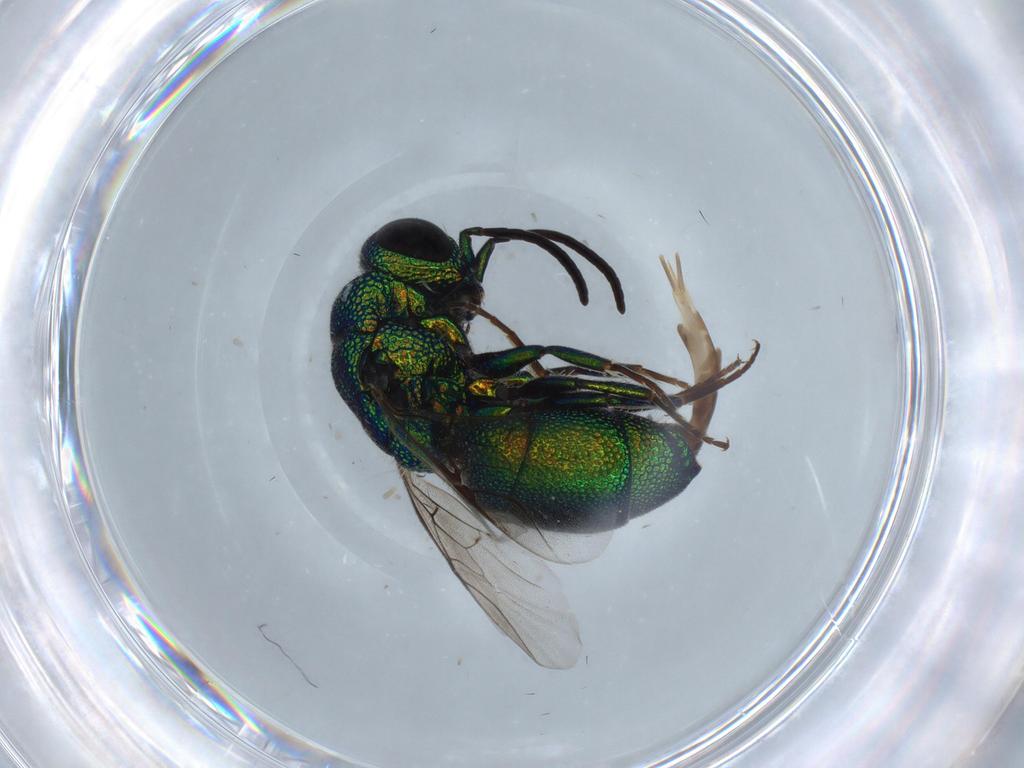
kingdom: Animalia
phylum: Arthropoda
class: Insecta
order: Hymenoptera
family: Chrysididae
